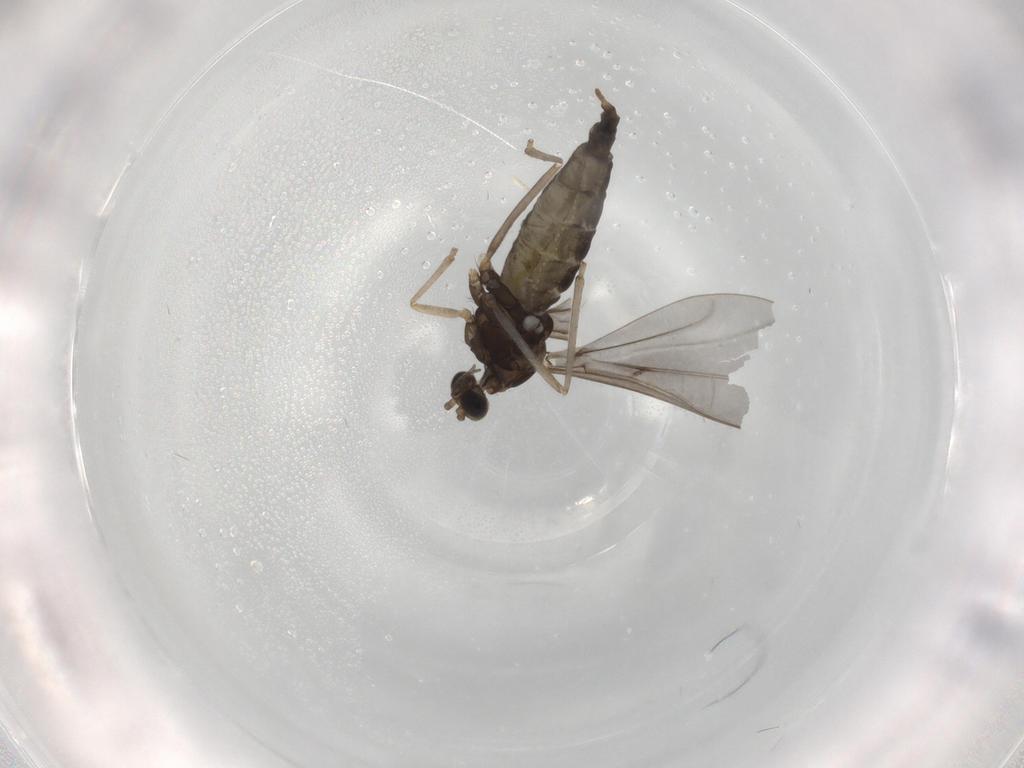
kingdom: Animalia
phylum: Arthropoda
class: Insecta
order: Diptera
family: Cecidomyiidae
